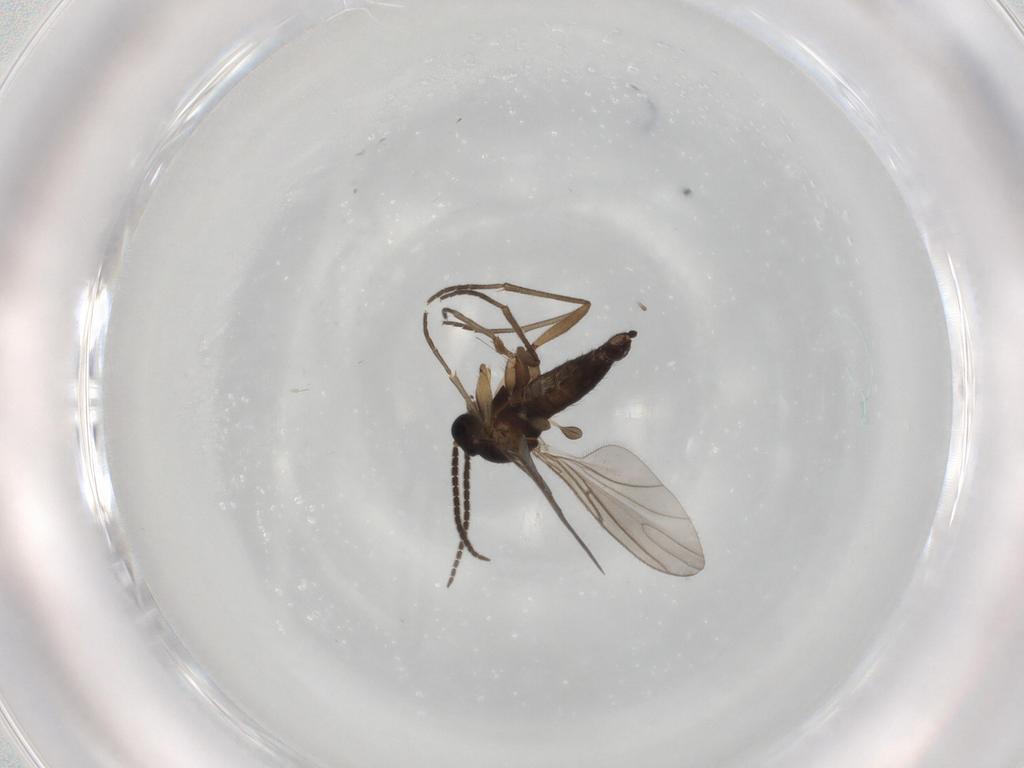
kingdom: Animalia
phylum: Arthropoda
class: Insecta
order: Diptera
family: Sciaridae
